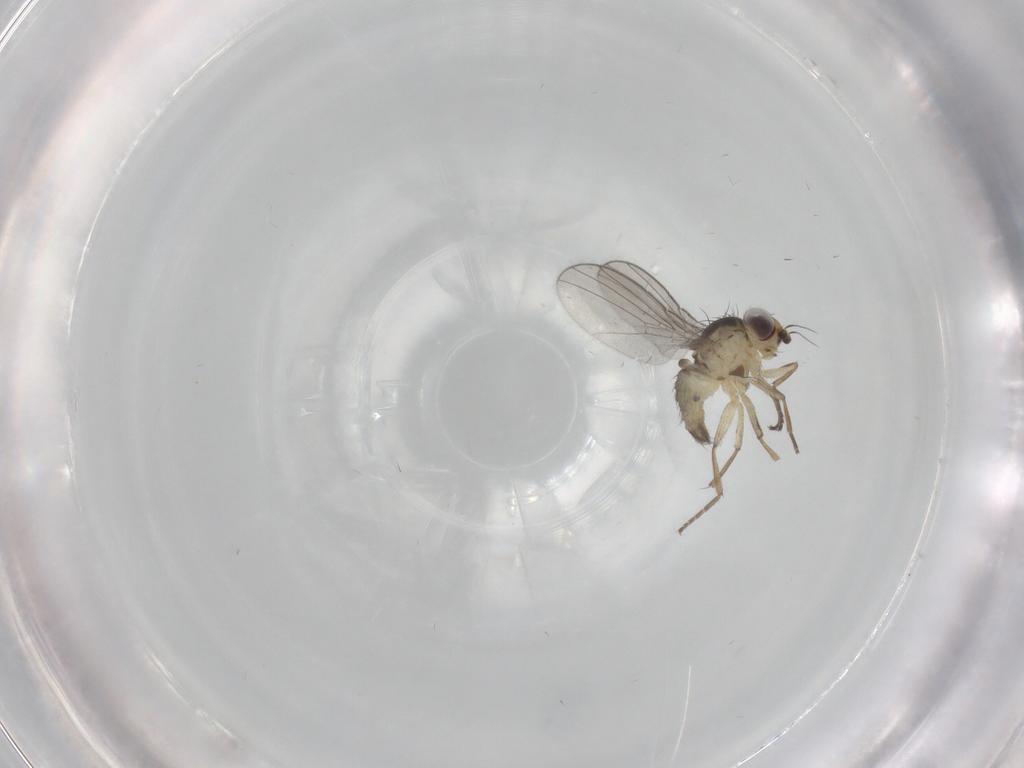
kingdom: Animalia
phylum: Arthropoda
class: Insecta
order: Diptera
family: Agromyzidae
